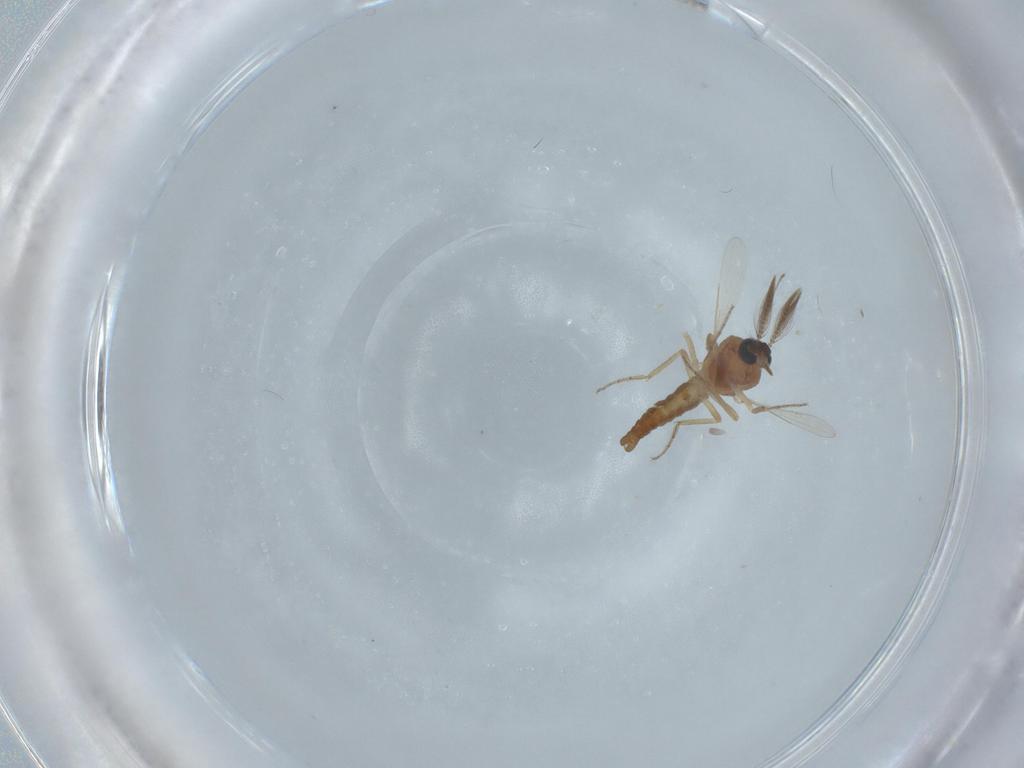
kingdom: Animalia
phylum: Arthropoda
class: Insecta
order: Diptera
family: Ceratopogonidae
